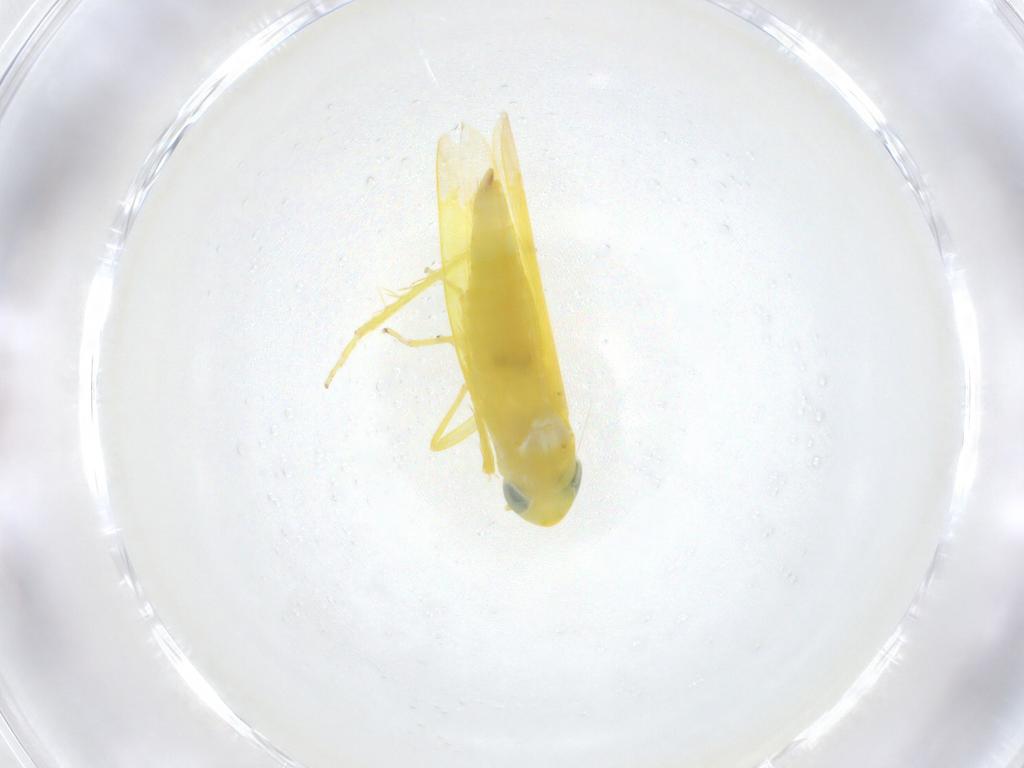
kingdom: Animalia
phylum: Arthropoda
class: Insecta
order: Hemiptera
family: Cicadellidae
